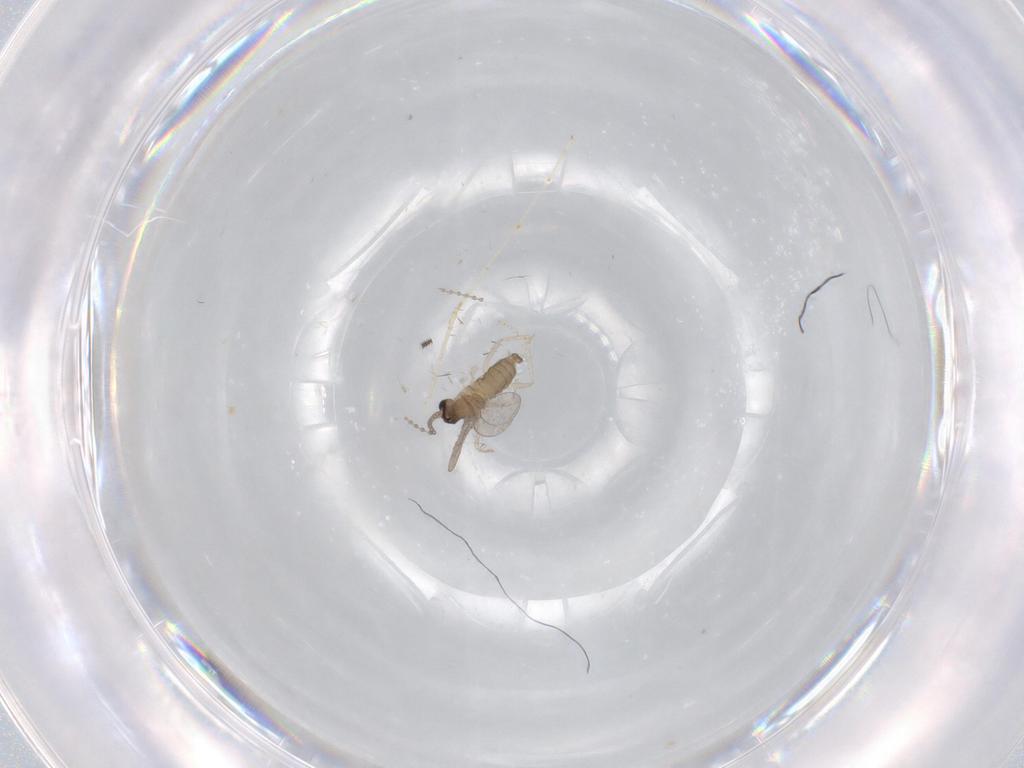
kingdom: Animalia
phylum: Arthropoda
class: Insecta
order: Diptera
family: Cecidomyiidae
